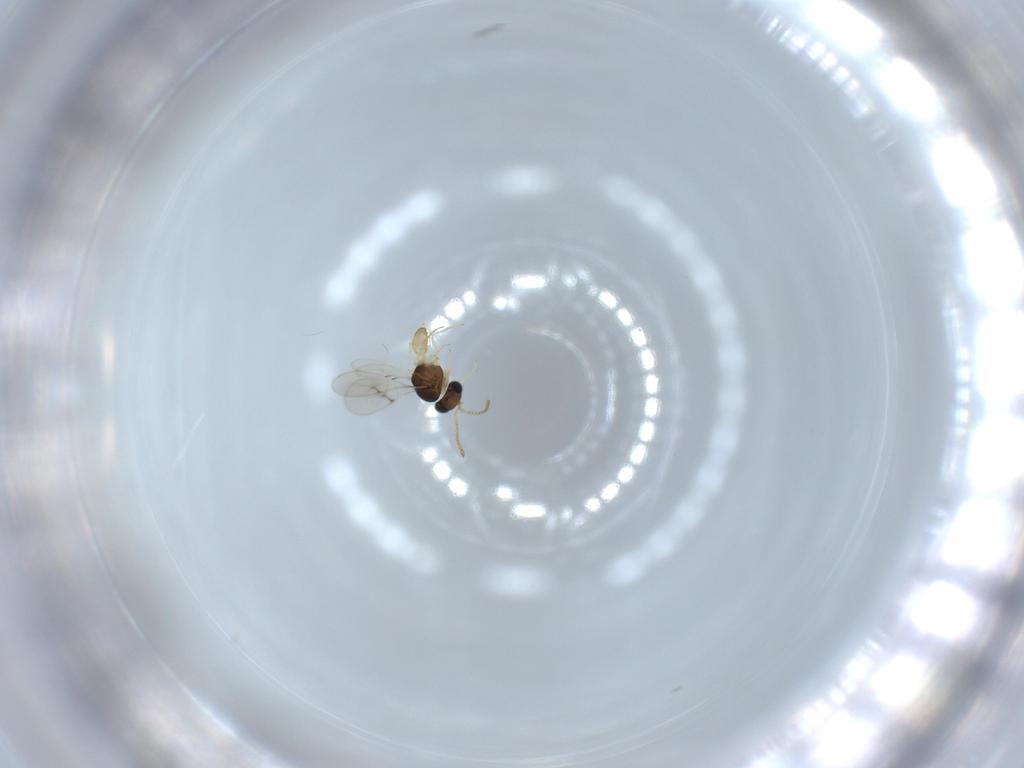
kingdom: Animalia
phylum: Arthropoda
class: Insecta
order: Hymenoptera
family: Scelionidae
